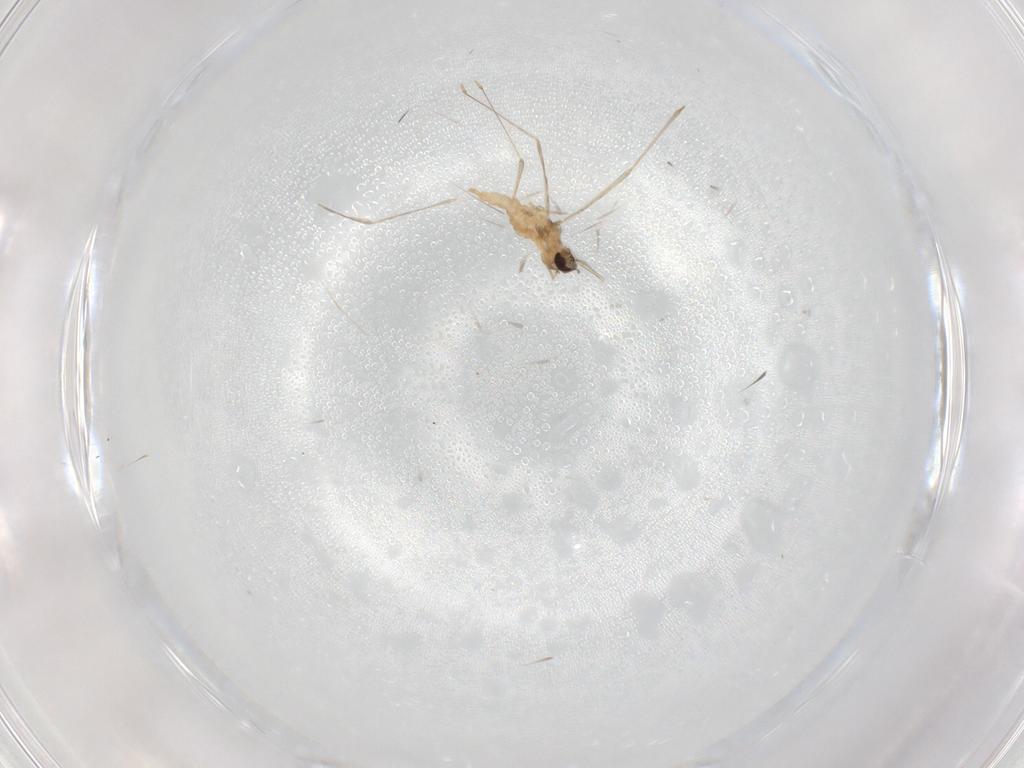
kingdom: Animalia
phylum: Arthropoda
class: Insecta
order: Diptera
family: Cecidomyiidae
